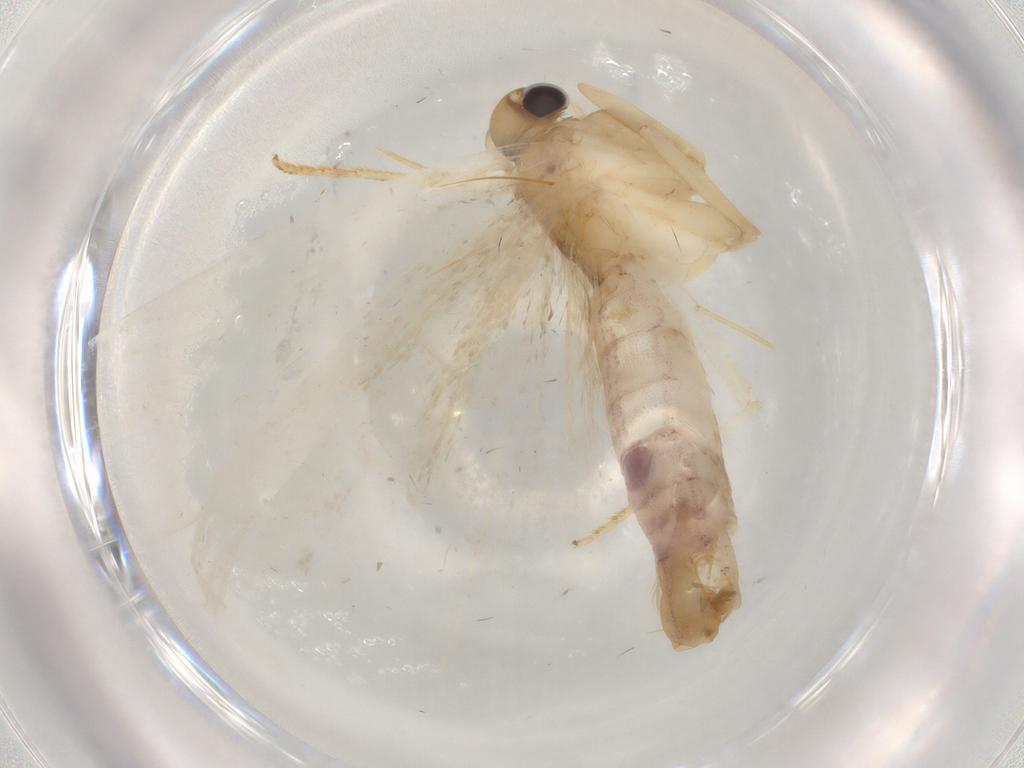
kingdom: Animalia
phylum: Arthropoda
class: Insecta
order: Lepidoptera
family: Gelechiidae
